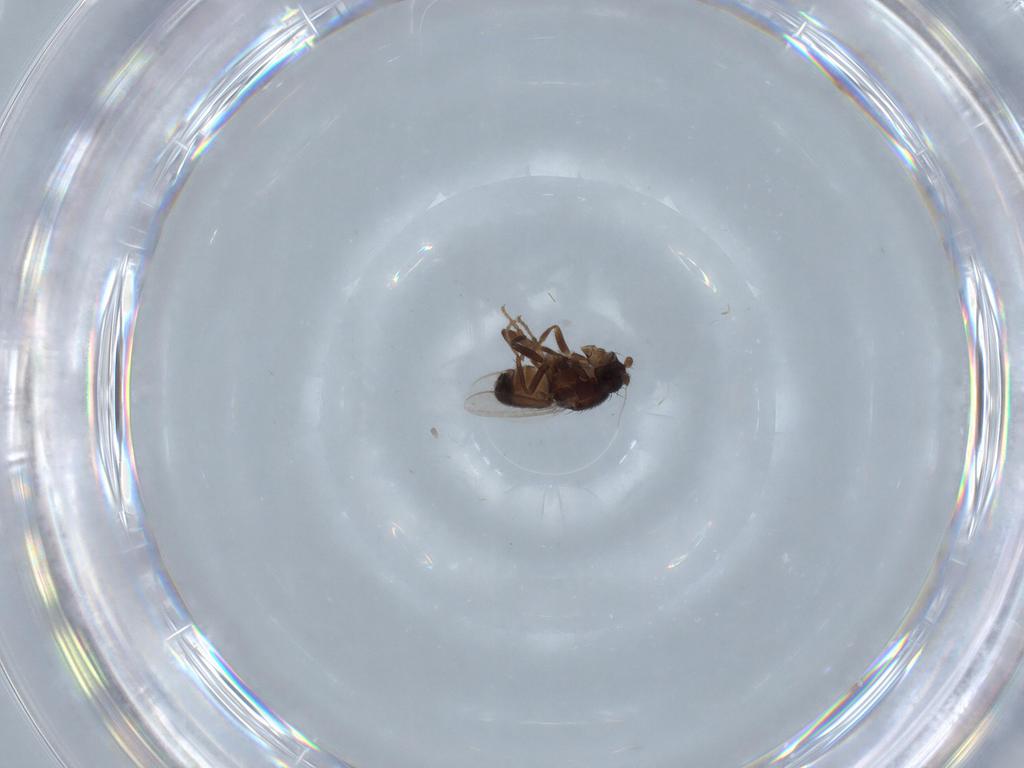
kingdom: Animalia
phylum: Arthropoda
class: Insecta
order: Diptera
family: Sphaeroceridae
